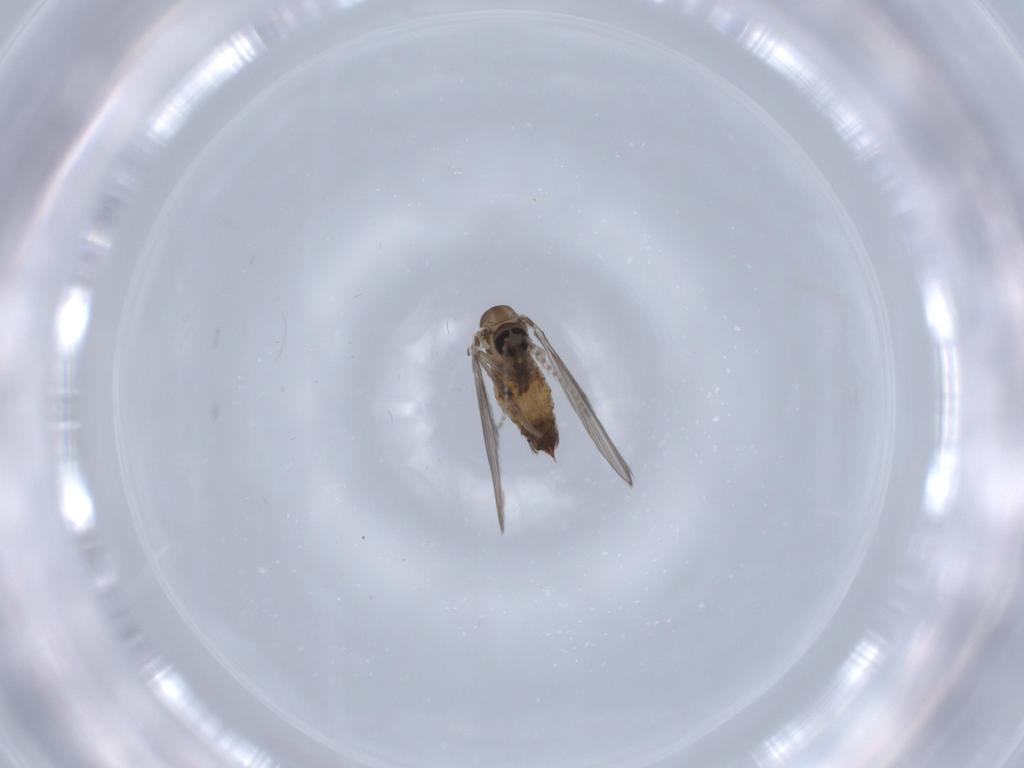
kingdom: Animalia
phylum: Arthropoda
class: Insecta
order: Diptera
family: Psychodidae
